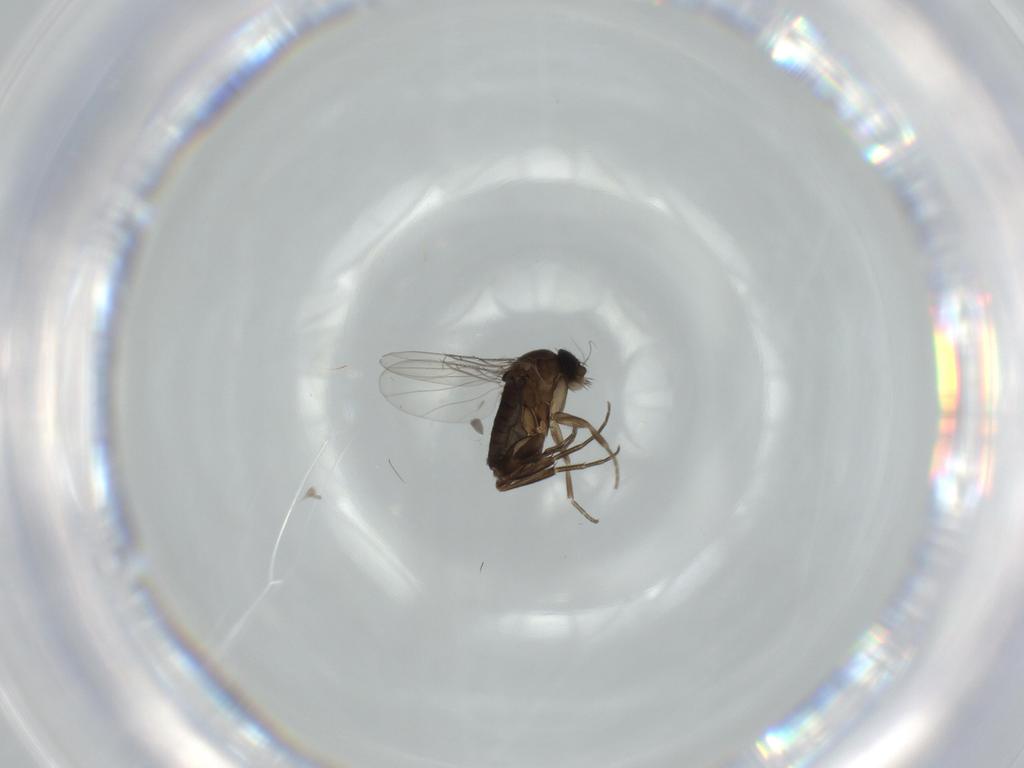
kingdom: Animalia
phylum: Arthropoda
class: Insecta
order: Diptera
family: Phoridae
